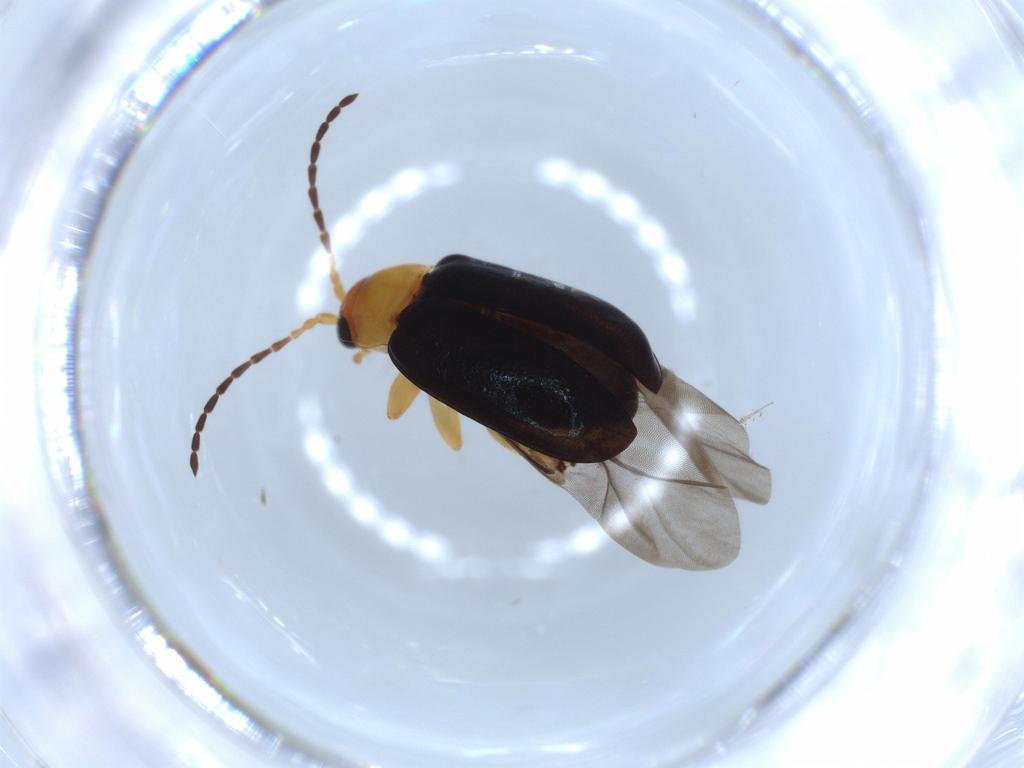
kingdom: Animalia
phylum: Arthropoda
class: Insecta
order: Coleoptera
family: Chrysomelidae
